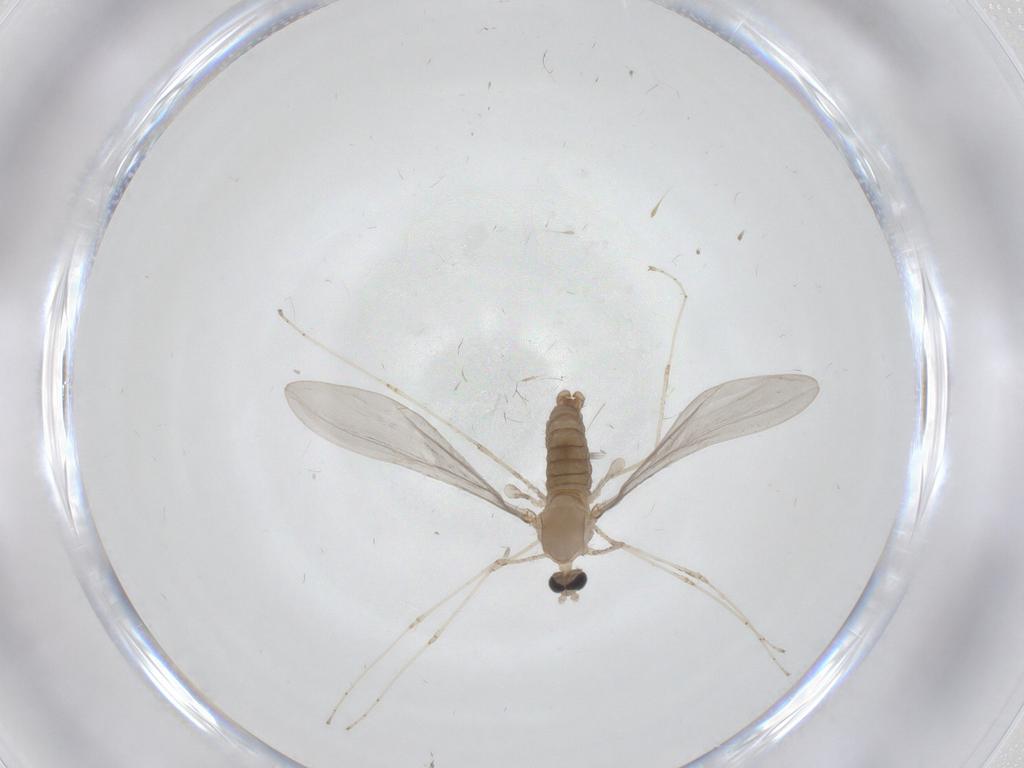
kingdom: Animalia
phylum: Arthropoda
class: Insecta
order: Diptera
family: Cecidomyiidae
